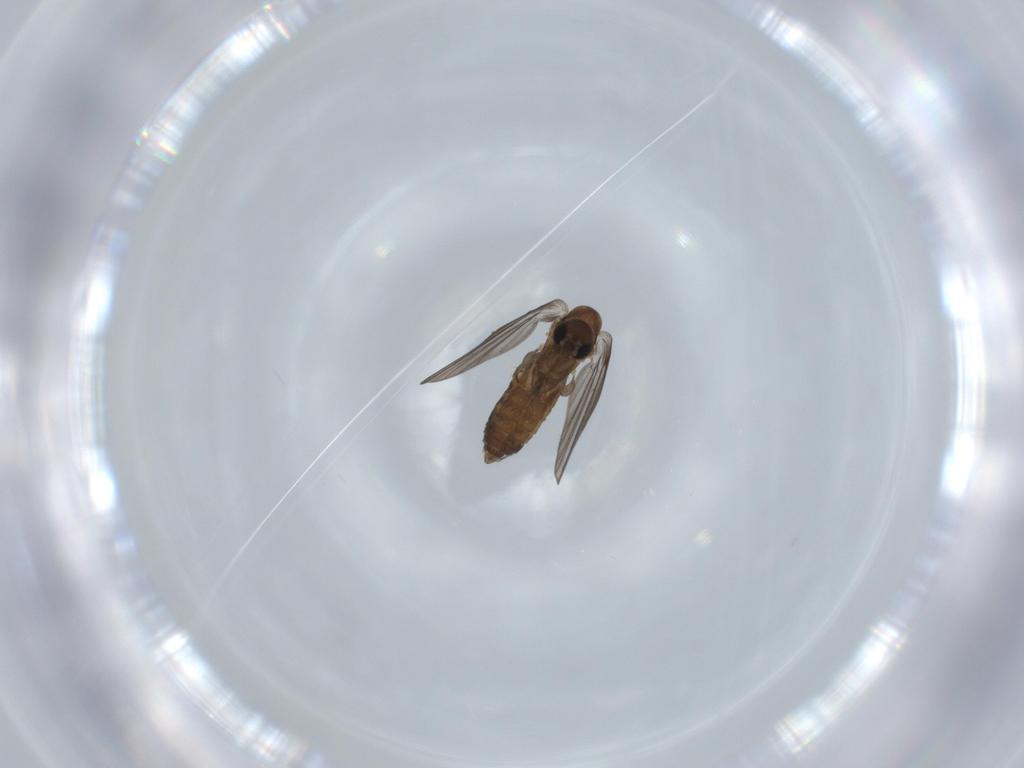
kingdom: Animalia
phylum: Arthropoda
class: Insecta
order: Diptera
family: Psychodidae
